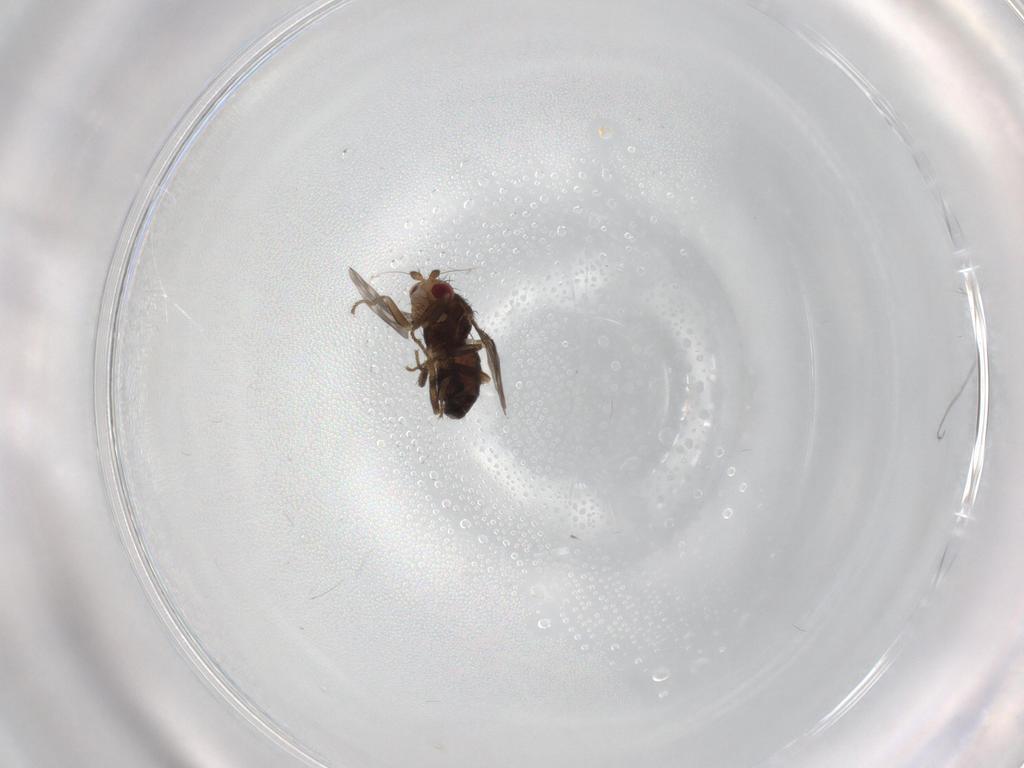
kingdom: Animalia
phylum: Arthropoda
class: Insecta
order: Diptera
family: Sphaeroceridae
